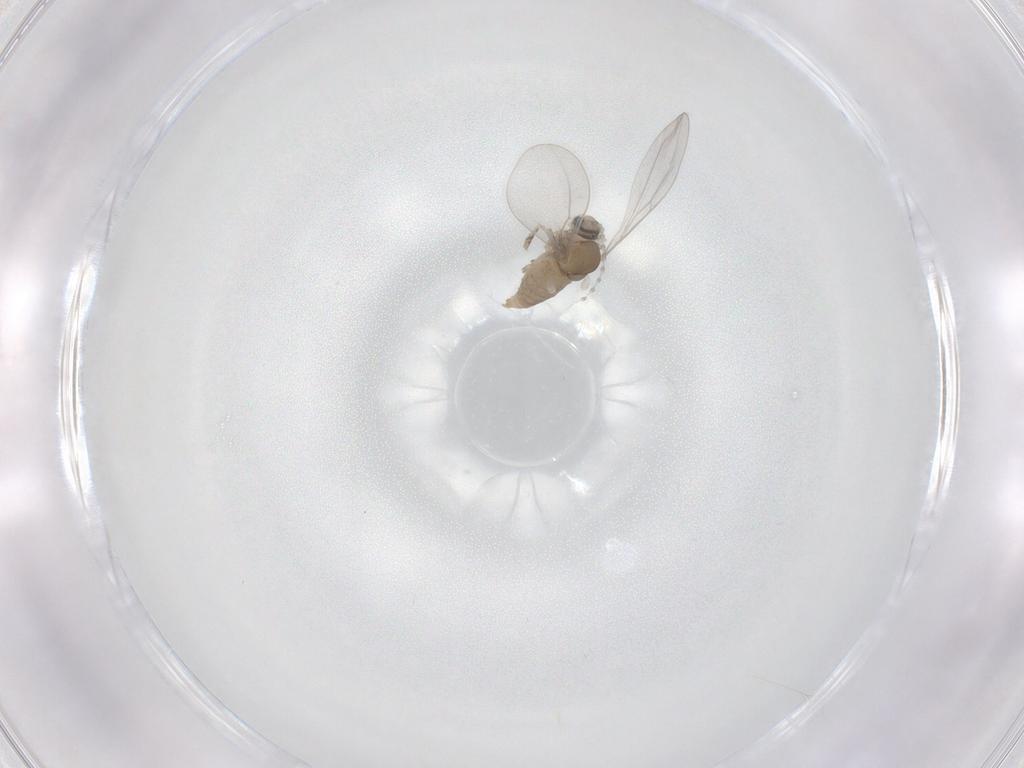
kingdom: Animalia
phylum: Arthropoda
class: Insecta
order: Diptera
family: Cecidomyiidae
